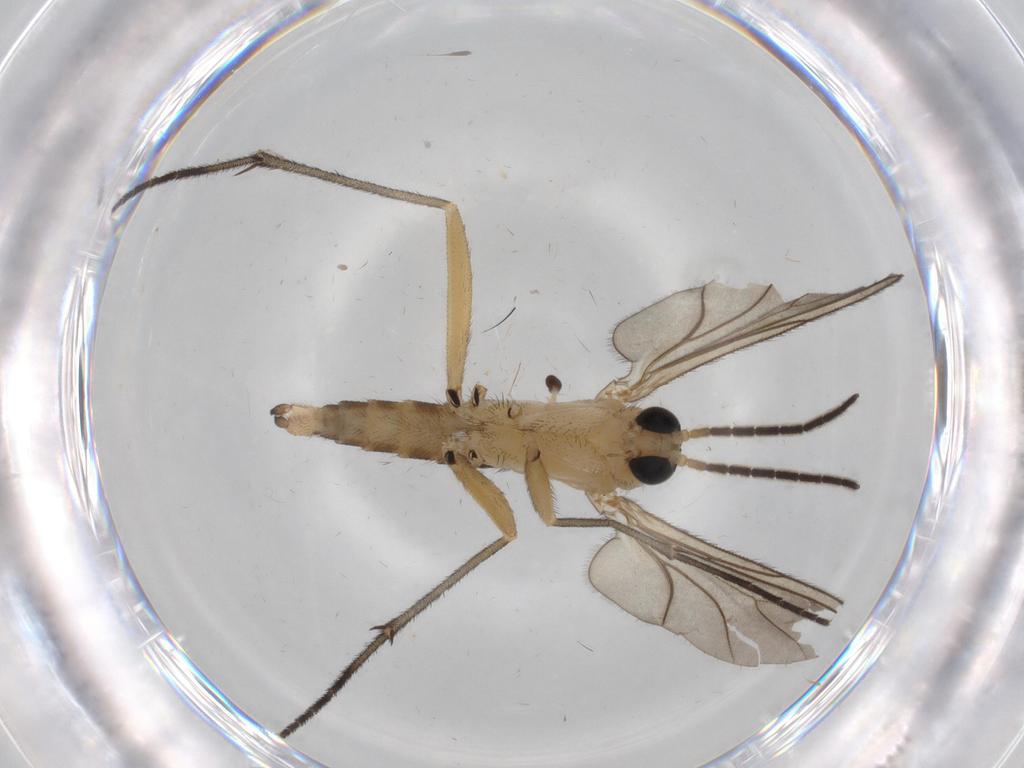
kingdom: Animalia
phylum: Arthropoda
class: Insecta
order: Diptera
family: Sciaridae
